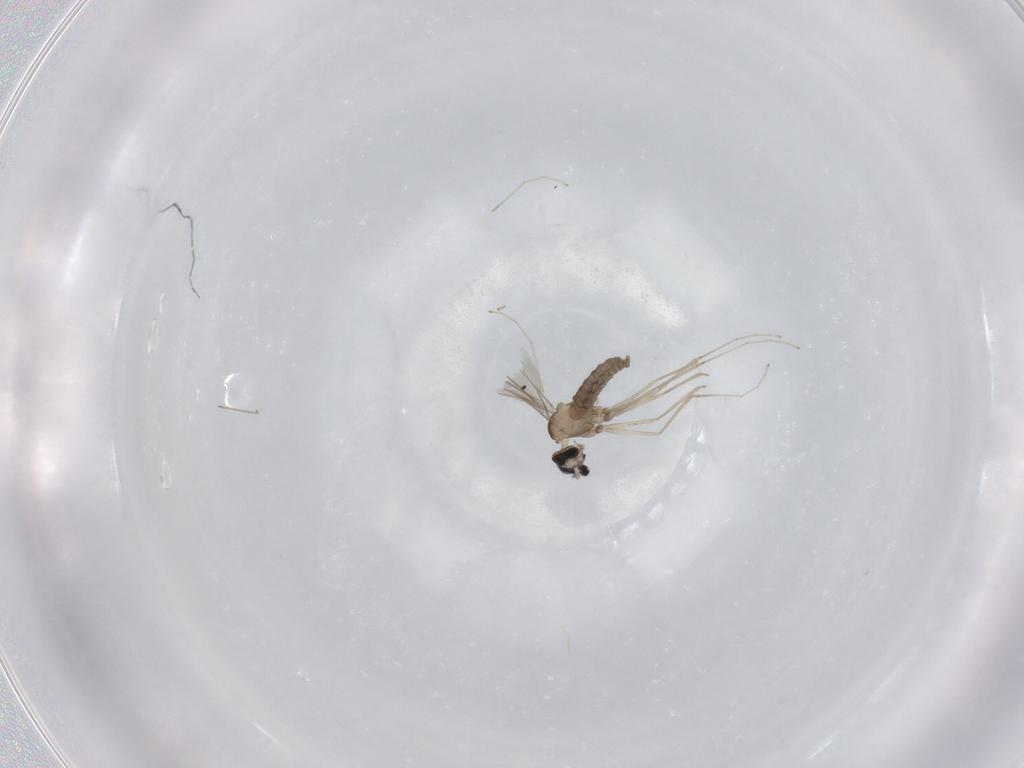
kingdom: Animalia
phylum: Arthropoda
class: Insecta
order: Diptera
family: Cecidomyiidae
